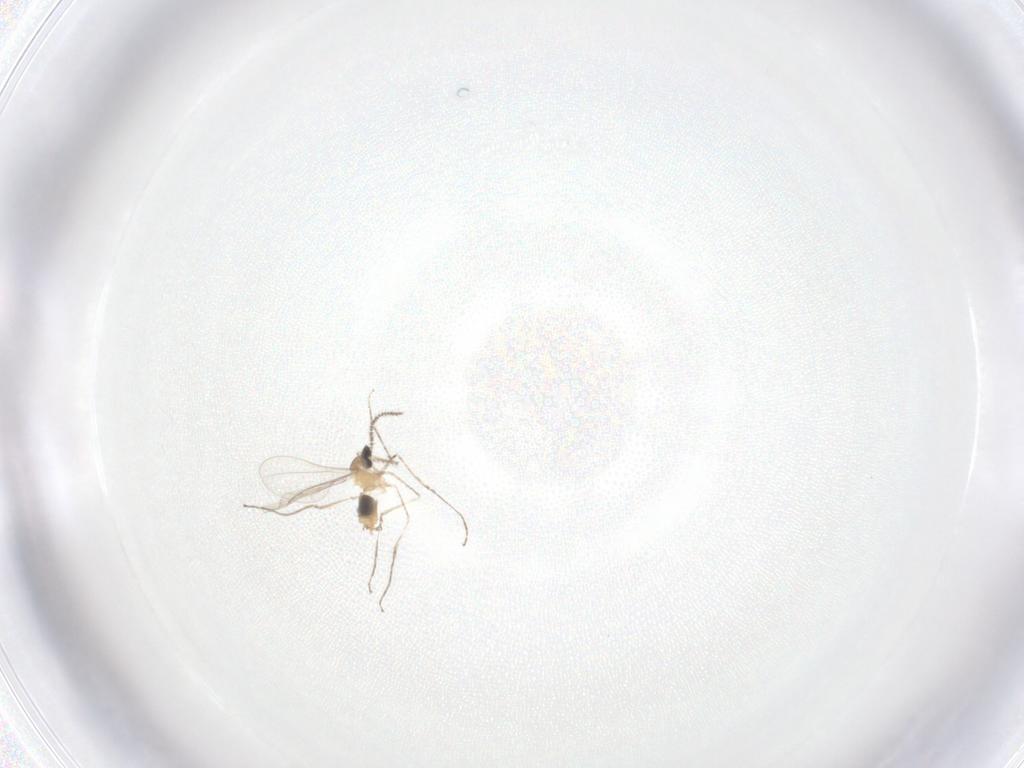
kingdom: Animalia
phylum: Arthropoda
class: Insecta
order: Diptera
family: Cecidomyiidae
